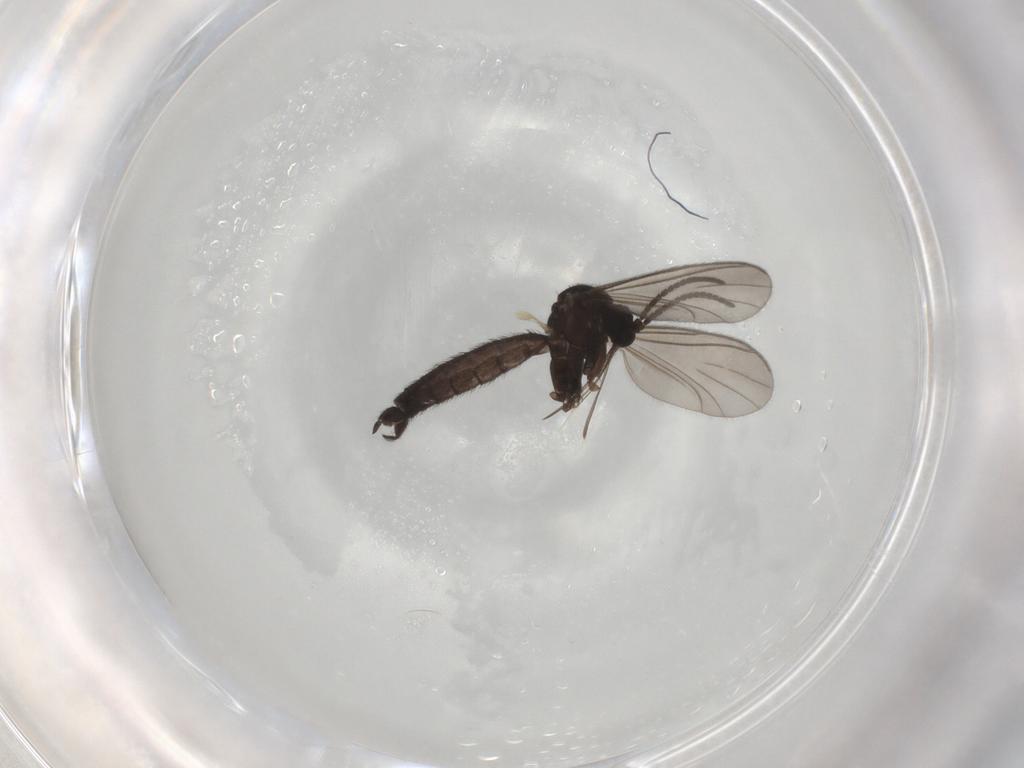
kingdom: Animalia
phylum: Arthropoda
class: Insecta
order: Diptera
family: Keroplatidae
